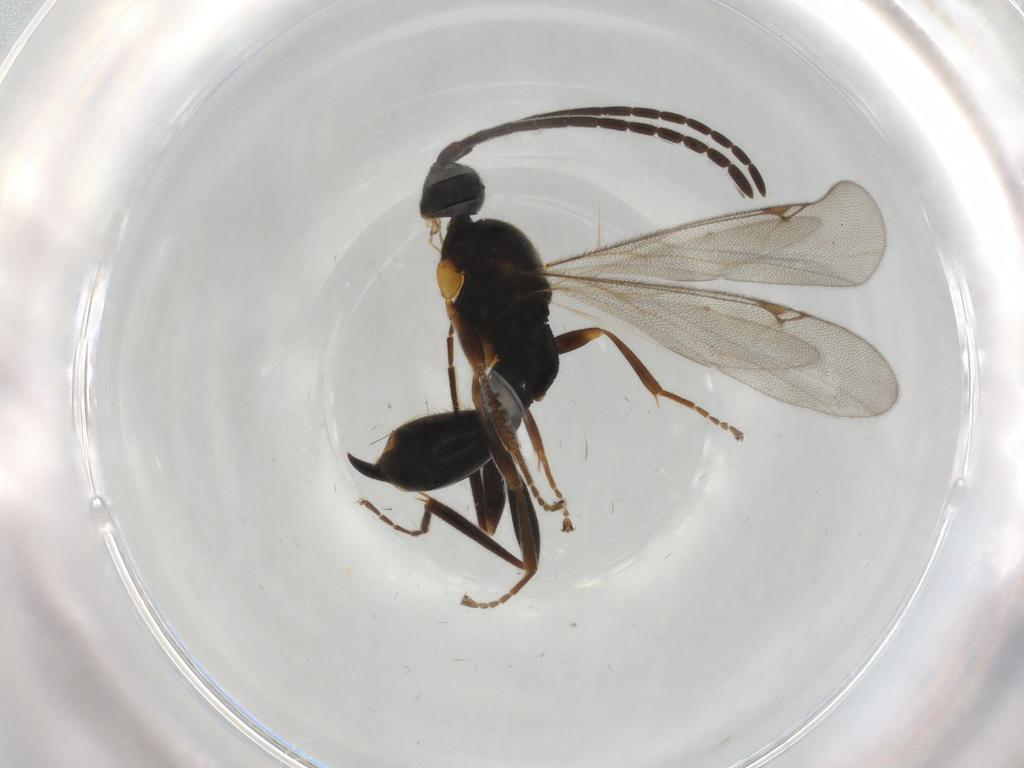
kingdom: Animalia
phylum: Arthropoda
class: Insecta
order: Hymenoptera
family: Proctotrupidae
